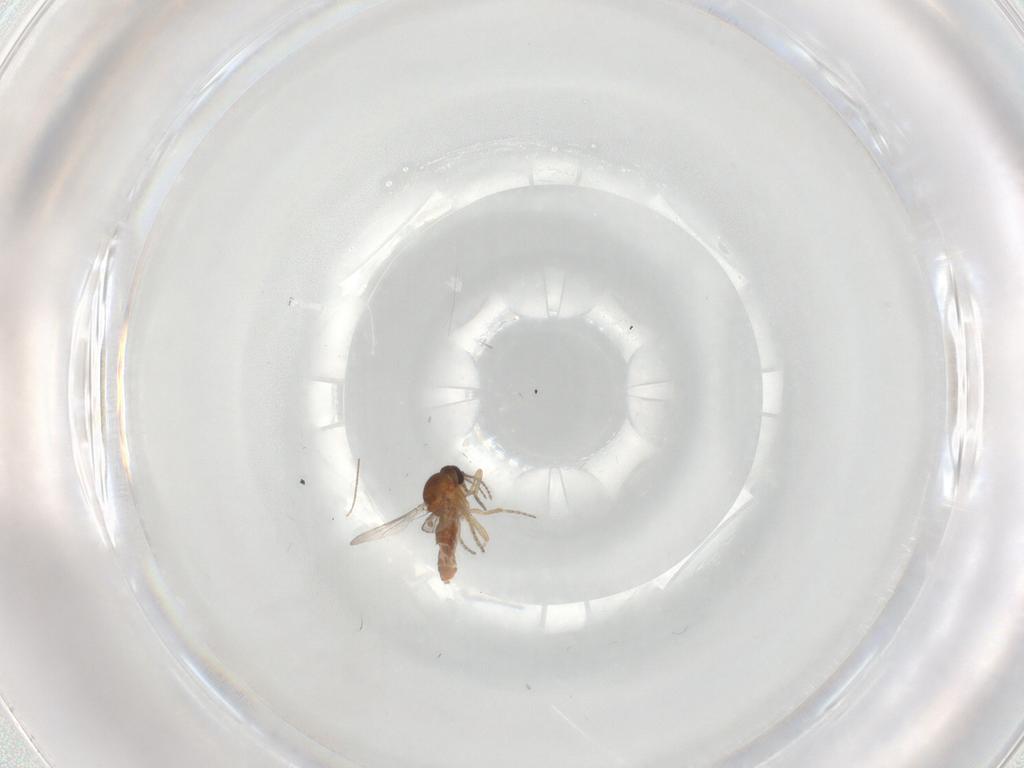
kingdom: Animalia
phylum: Arthropoda
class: Insecta
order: Diptera
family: Ceratopogonidae
